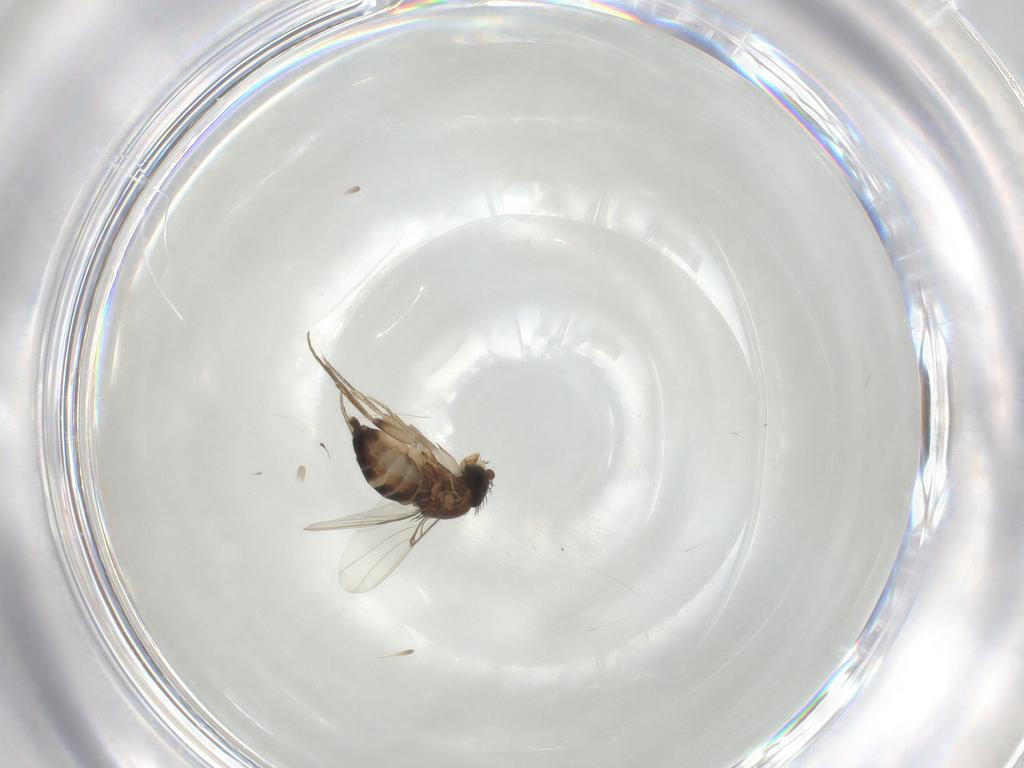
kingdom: Animalia
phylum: Arthropoda
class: Insecta
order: Diptera
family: Phoridae
